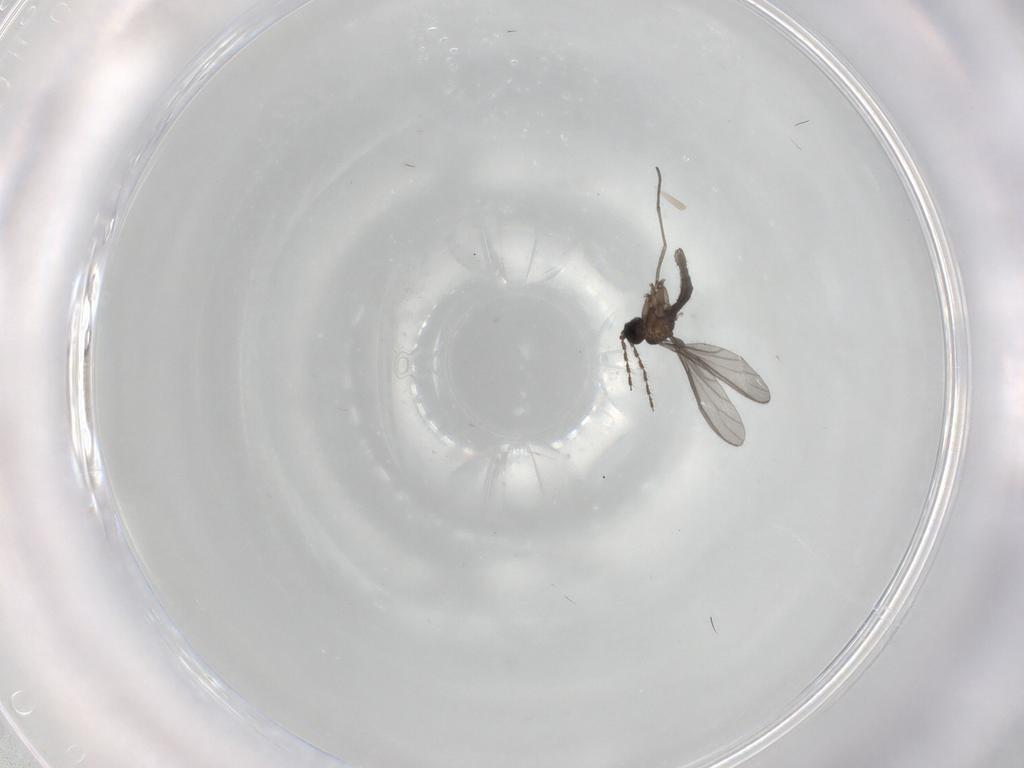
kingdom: Animalia
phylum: Arthropoda
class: Insecta
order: Diptera
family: Sciaridae
